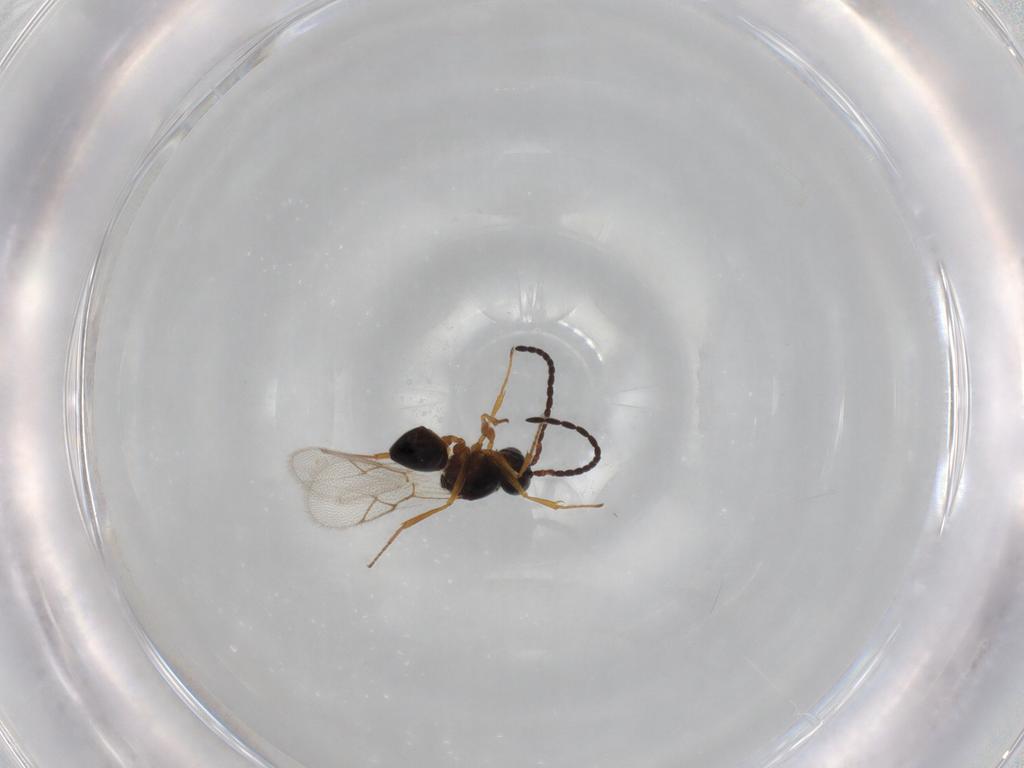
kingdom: Animalia
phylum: Arthropoda
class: Insecta
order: Hymenoptera
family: Figitidae
